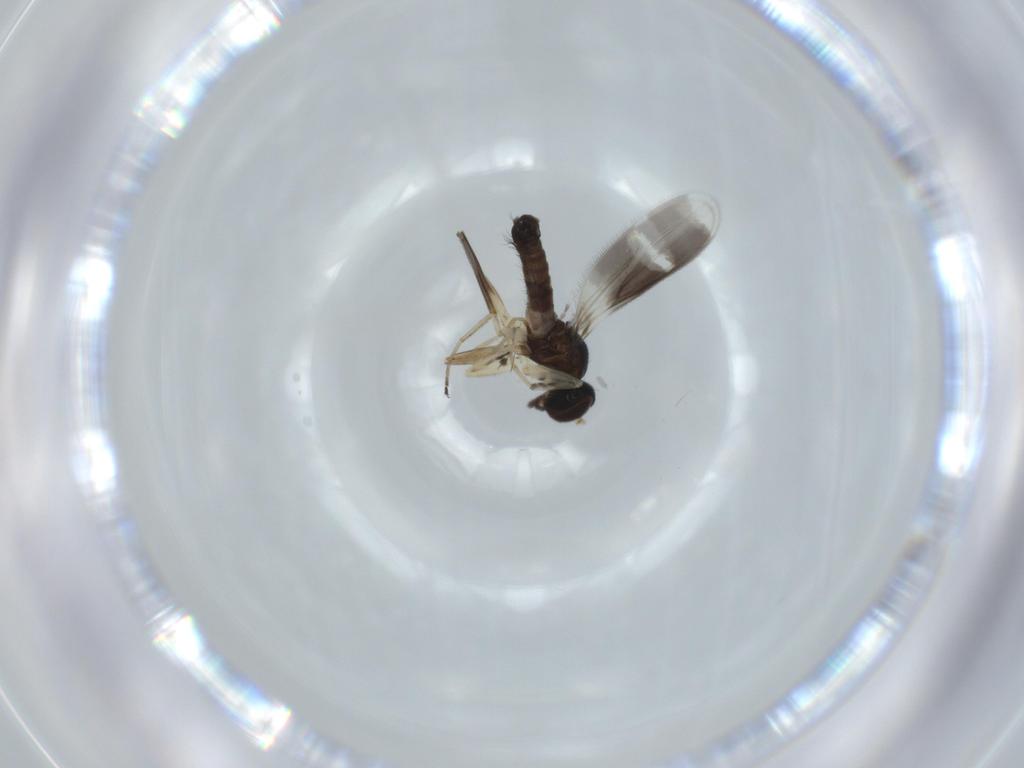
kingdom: Animalia
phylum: Arthropoda
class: Insecta
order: Diptera
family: Hybotidae
